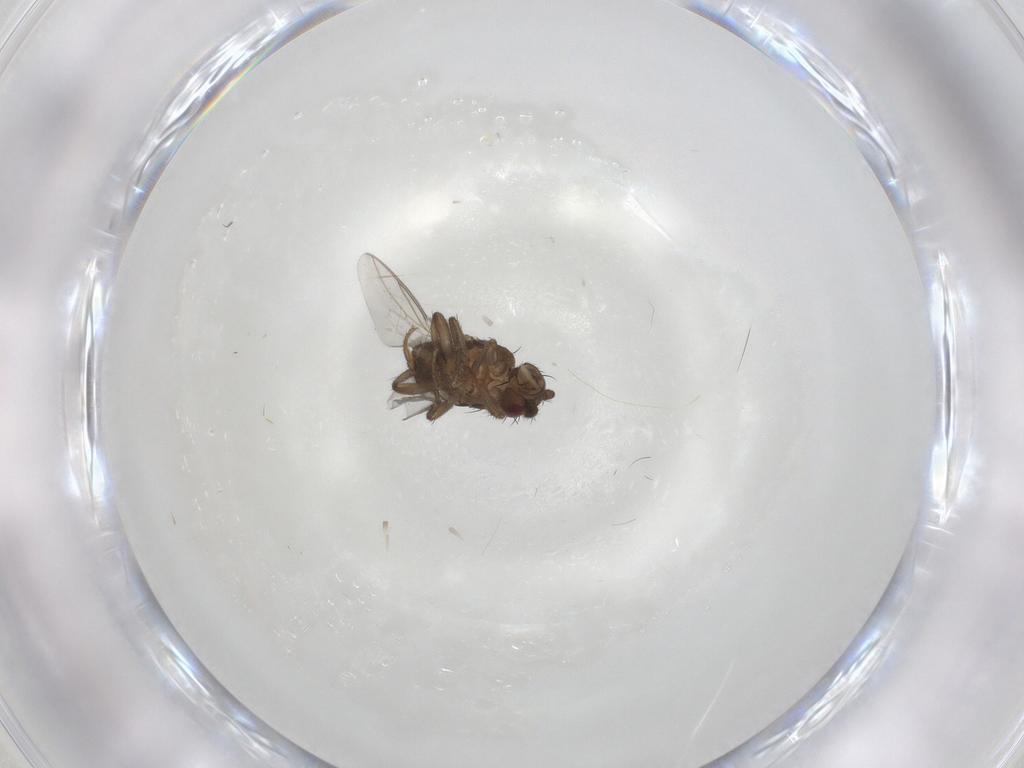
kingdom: Animalia
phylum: Arthropoda
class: Insecta
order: Diptera
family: Sphaeroceridae
